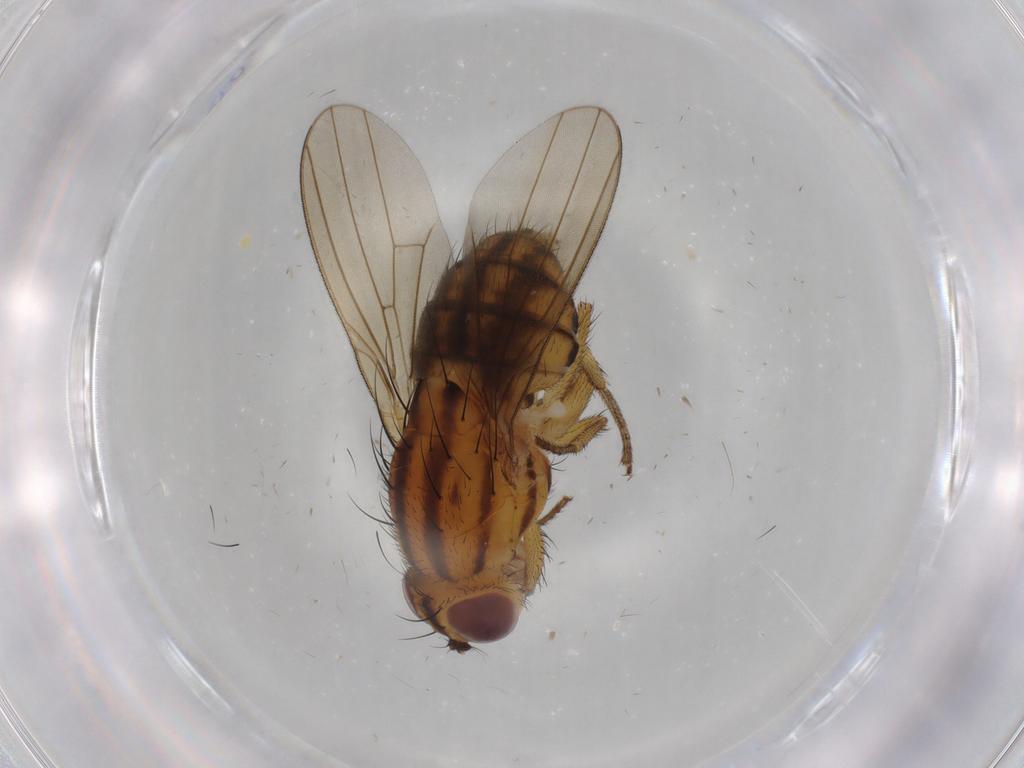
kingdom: Animalia
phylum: Arthropoda
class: Insecta
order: Diptera
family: Dolichopodidae
